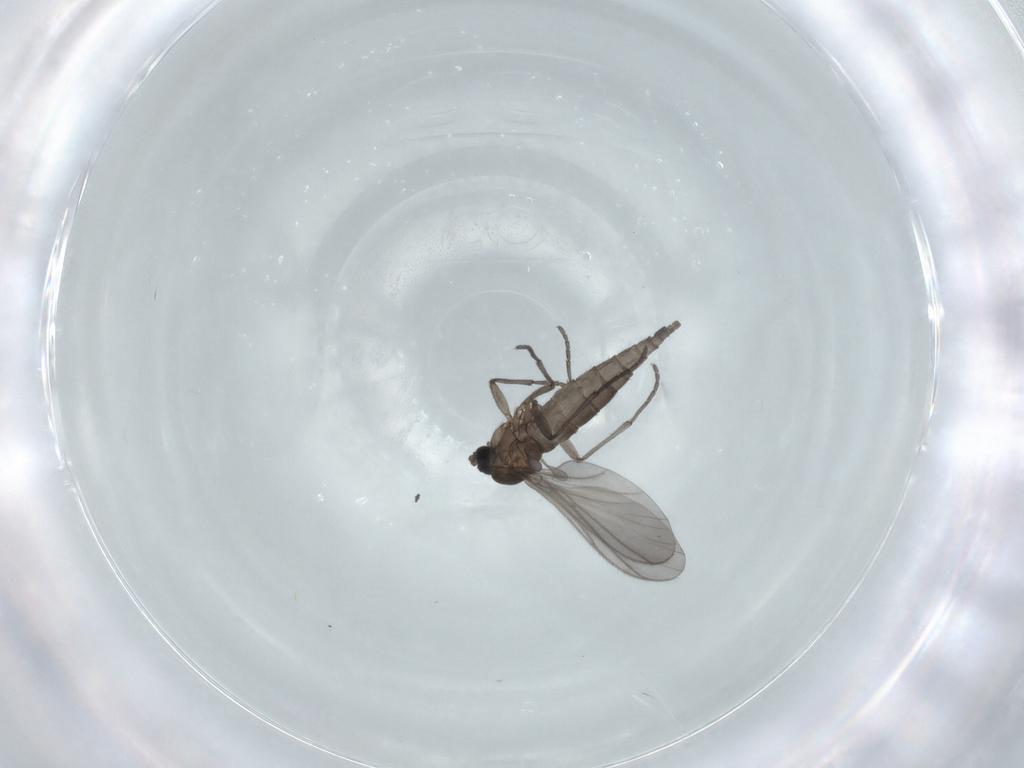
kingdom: Animalia
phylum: Arthropoda
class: Insecta
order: Diptera
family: Sciaridae
